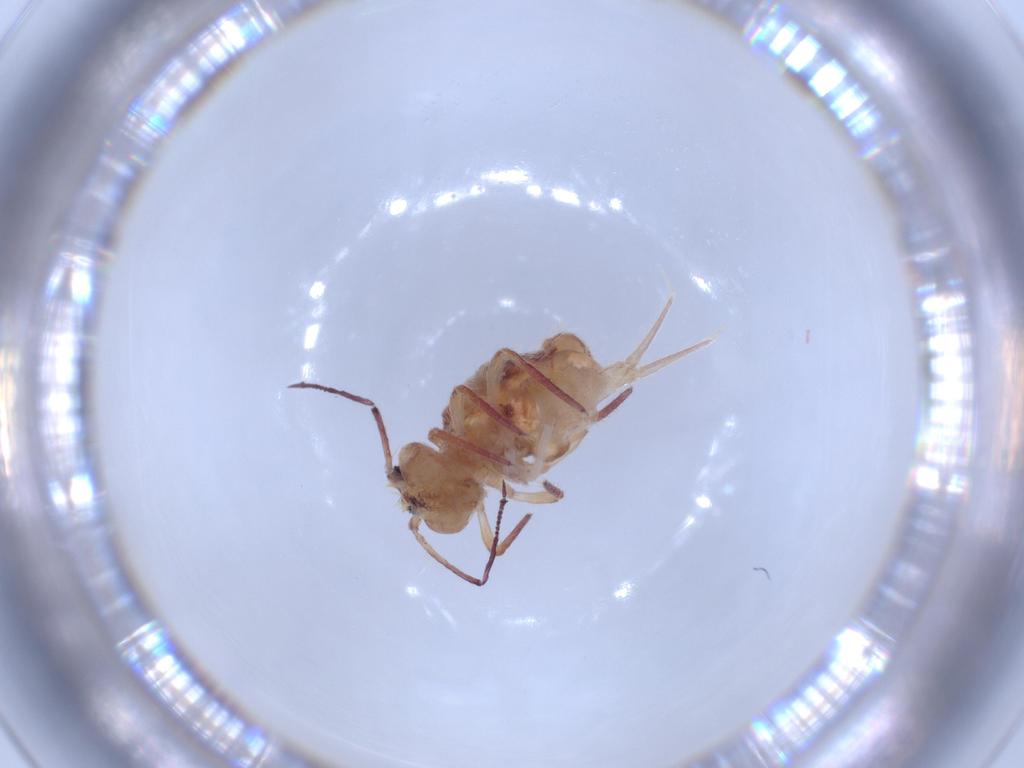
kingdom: Animalia
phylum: Arthropoda
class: Collembola
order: Symphypleona
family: Dicyrtomidae
